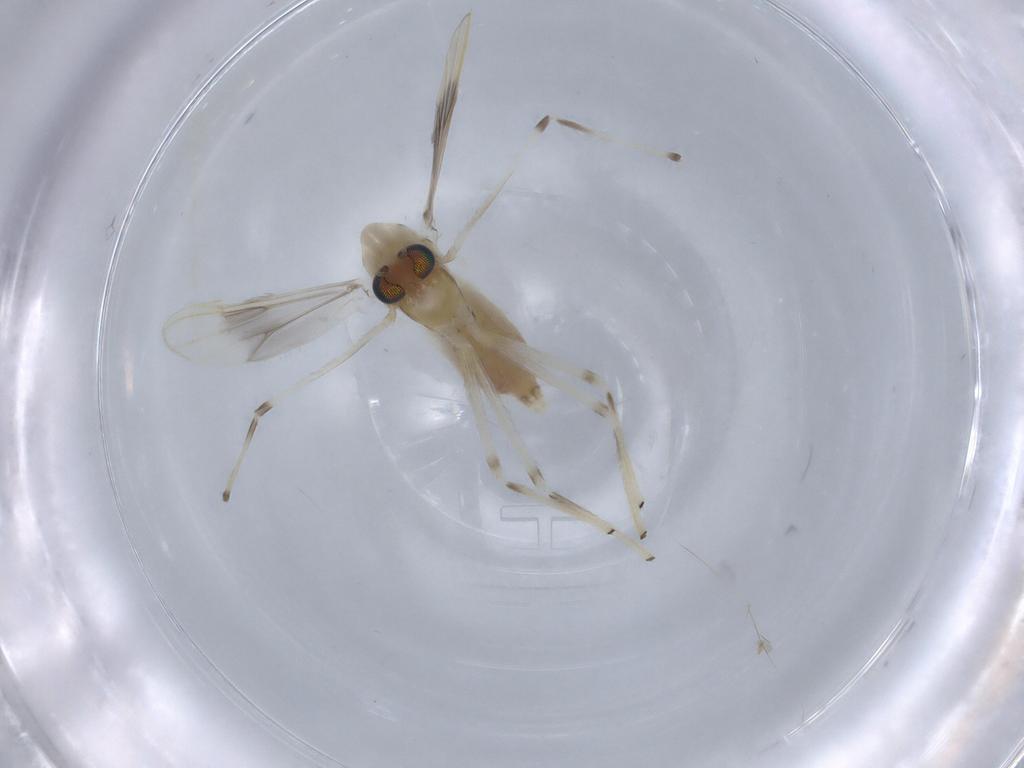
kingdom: Animalia
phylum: Arthropoda
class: Insecta
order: Diptera
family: Chironomidae
